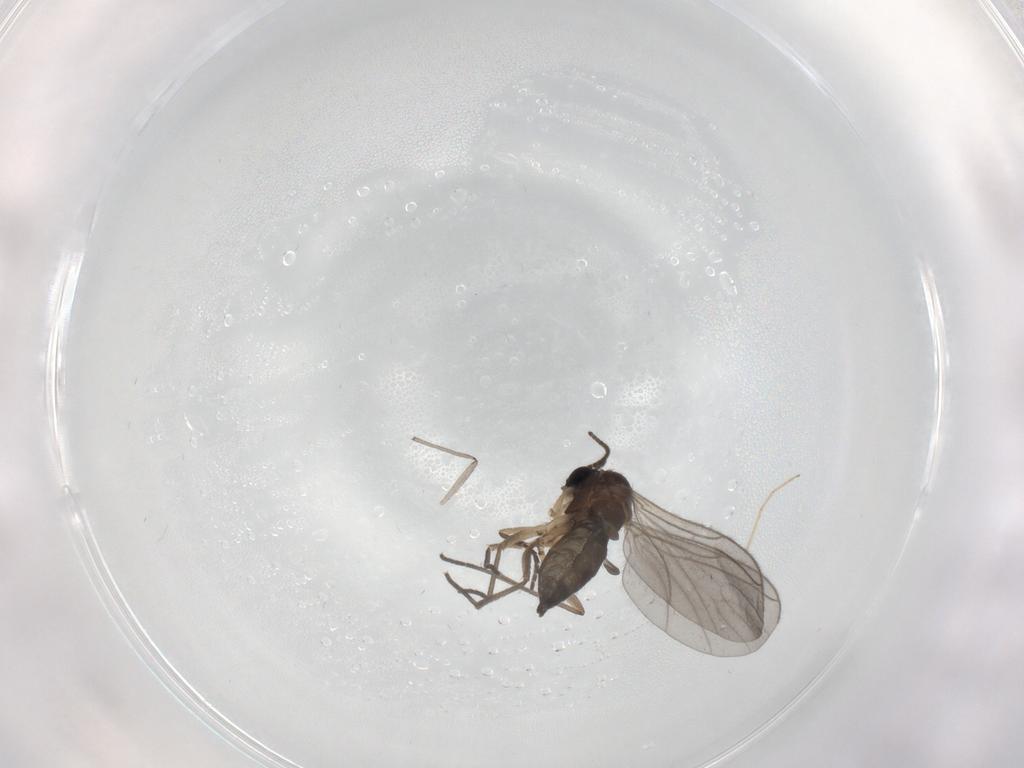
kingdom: Animalia
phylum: Arthropoda
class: Insecta
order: Diptera
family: Sciaridae
